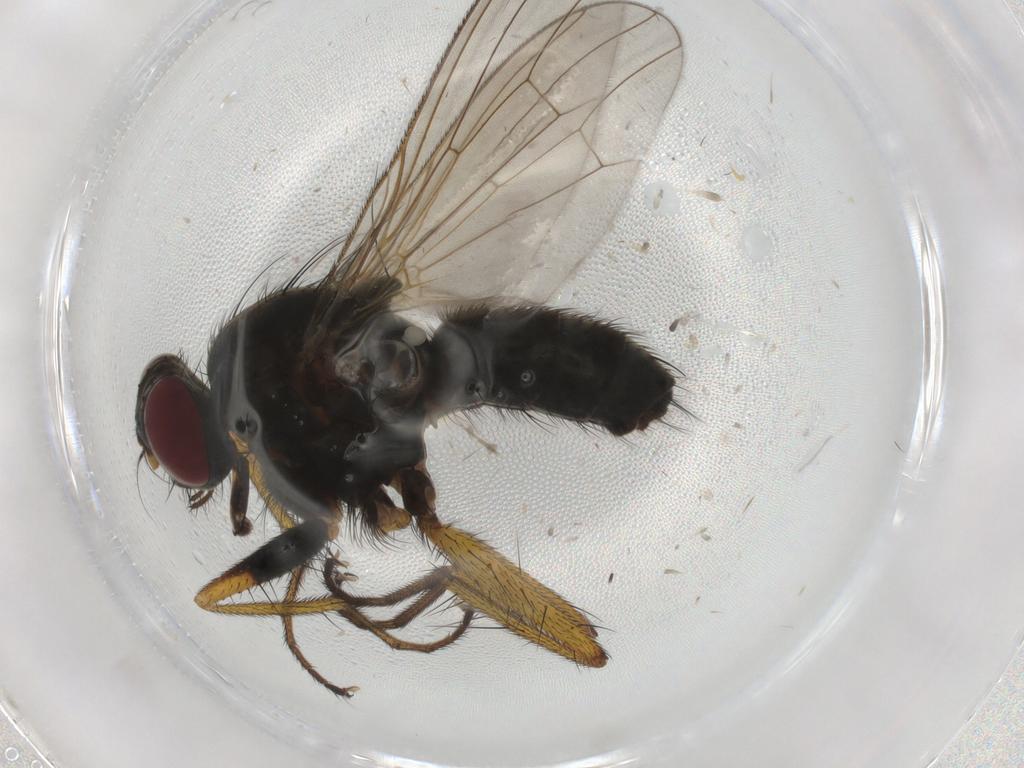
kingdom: Animalia
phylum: Arthropoda
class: Insecta
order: Diptera
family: Muscidae
